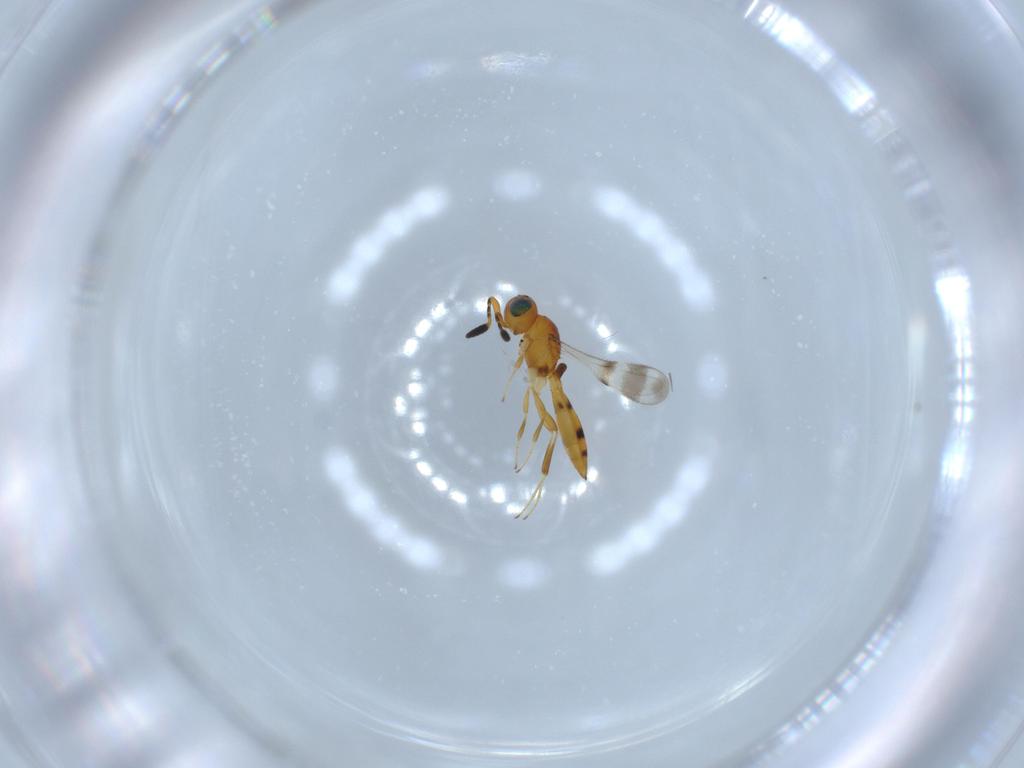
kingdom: Animalia
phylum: Arthropoda
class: Insecta
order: Hymenoptera
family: Scelionidae
